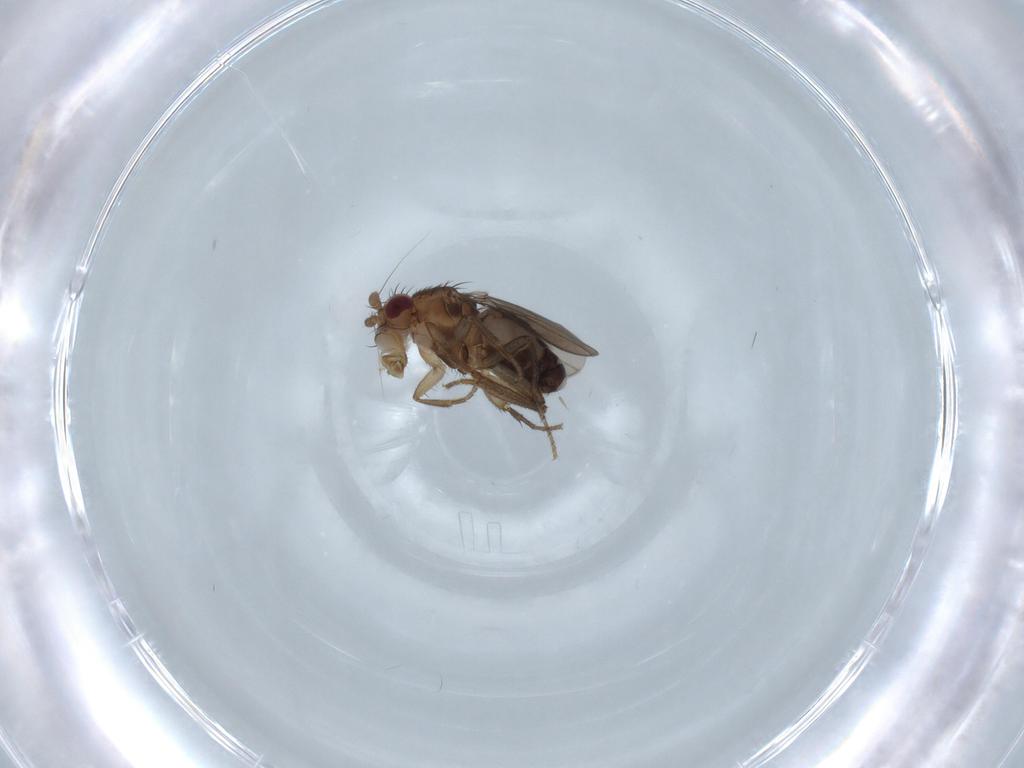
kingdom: Animalia
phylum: Arthropoda
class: Insecta
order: Diptera
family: Sphaeroceridae
